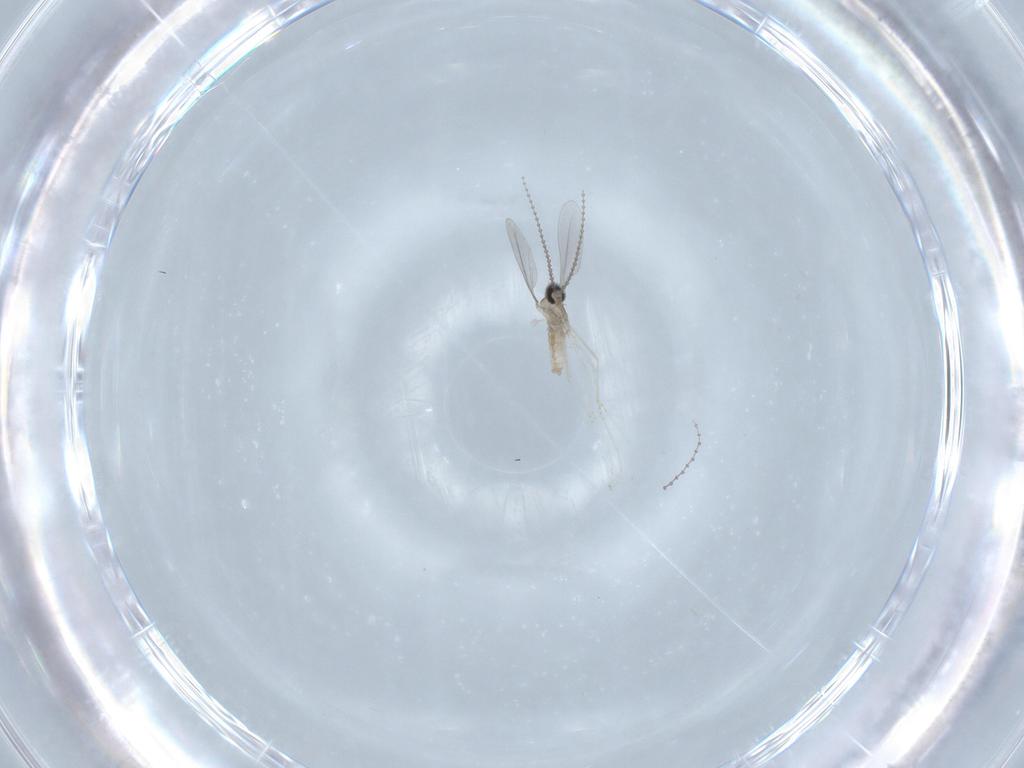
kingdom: Animalia
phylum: Arthropoda
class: Insecta
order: Diptera
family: Cecidomyiidae
